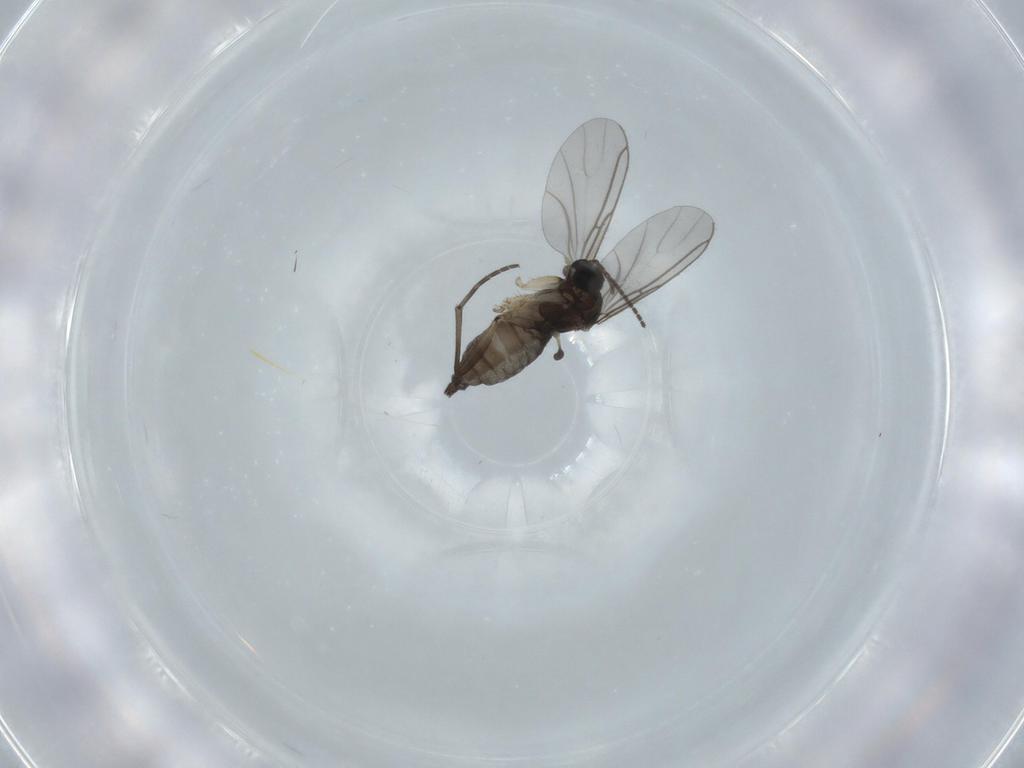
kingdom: Animalia
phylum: Arthropoda
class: Insecta
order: Diptera
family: Sciaridae
